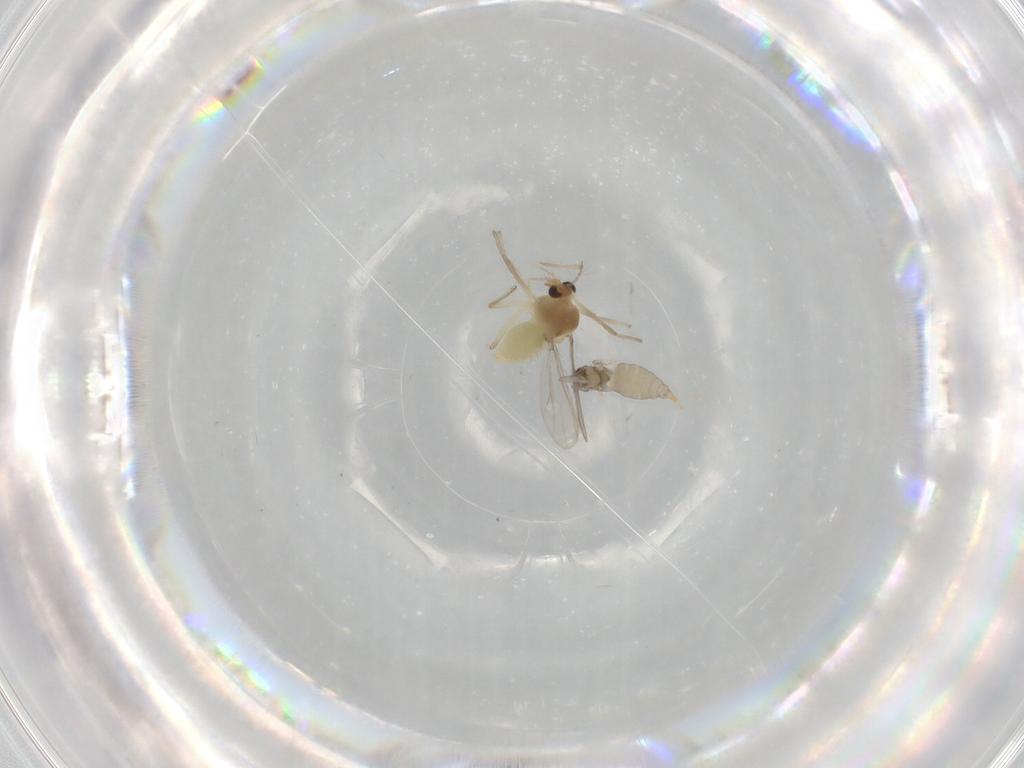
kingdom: Animalia
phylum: Arthropoda
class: Insecta
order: Diptera
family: Chironomidae
